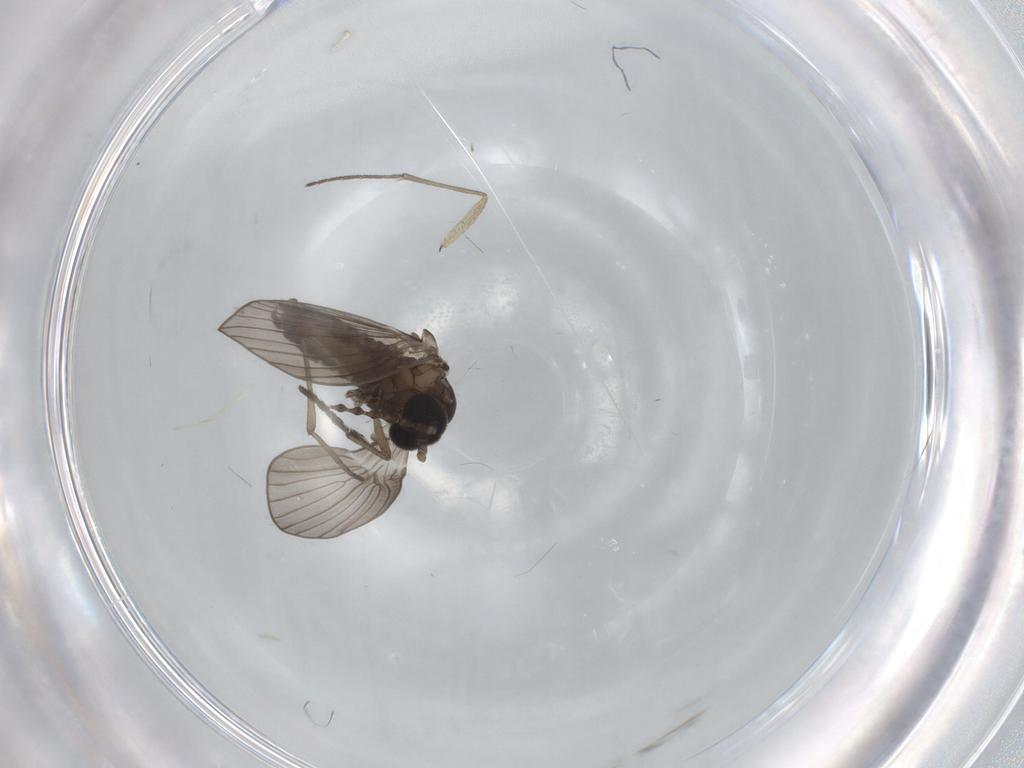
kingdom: Animalia
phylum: Arthropoda
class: Insecta
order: Diptera
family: Psychodidae
